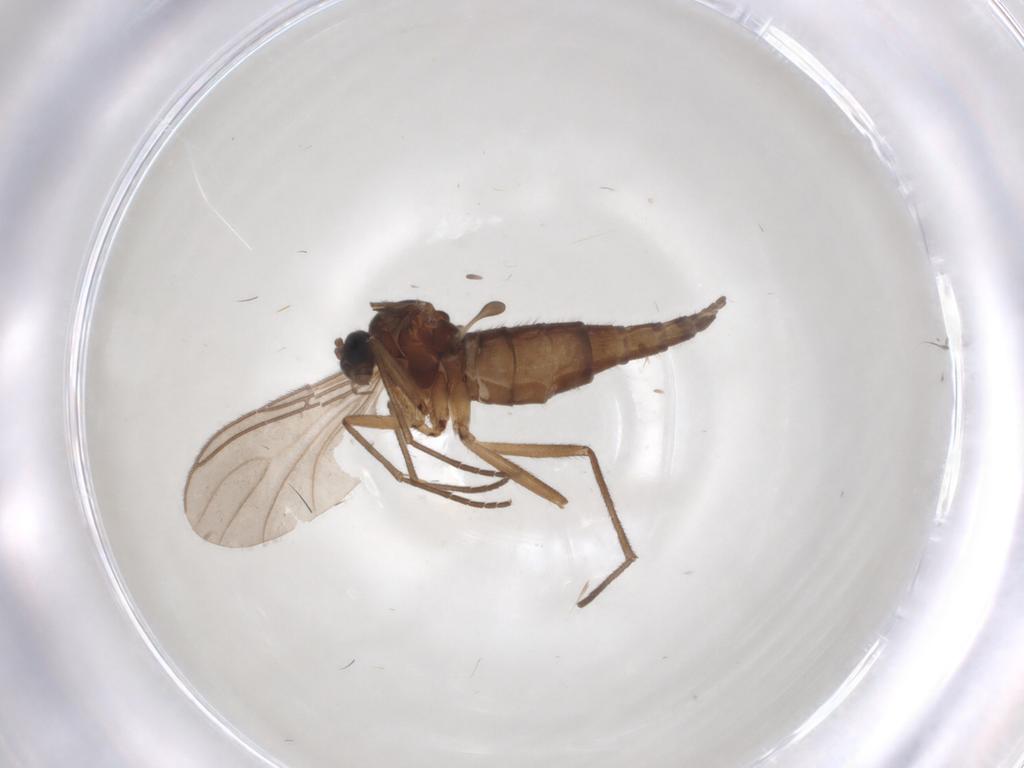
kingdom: Animalia
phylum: Arthropoda
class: Insecta
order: Diptera
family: Sciaridae
